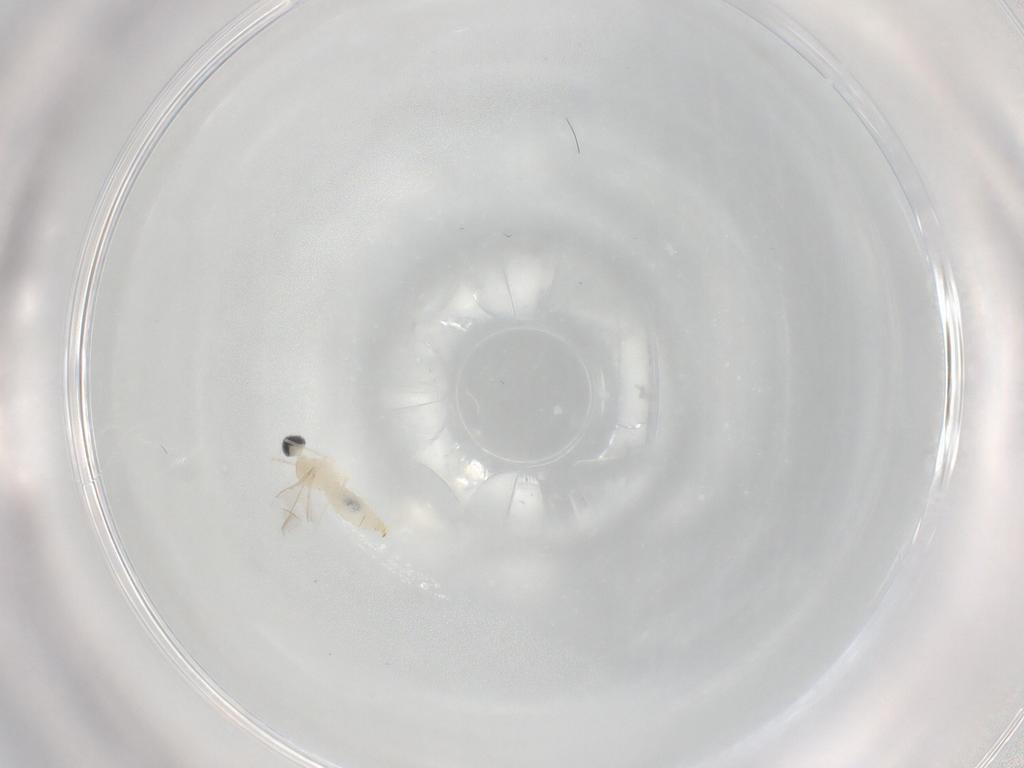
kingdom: Animalia
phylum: Arthropoda
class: Insecta
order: Diptera
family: Cecidomyiidae
